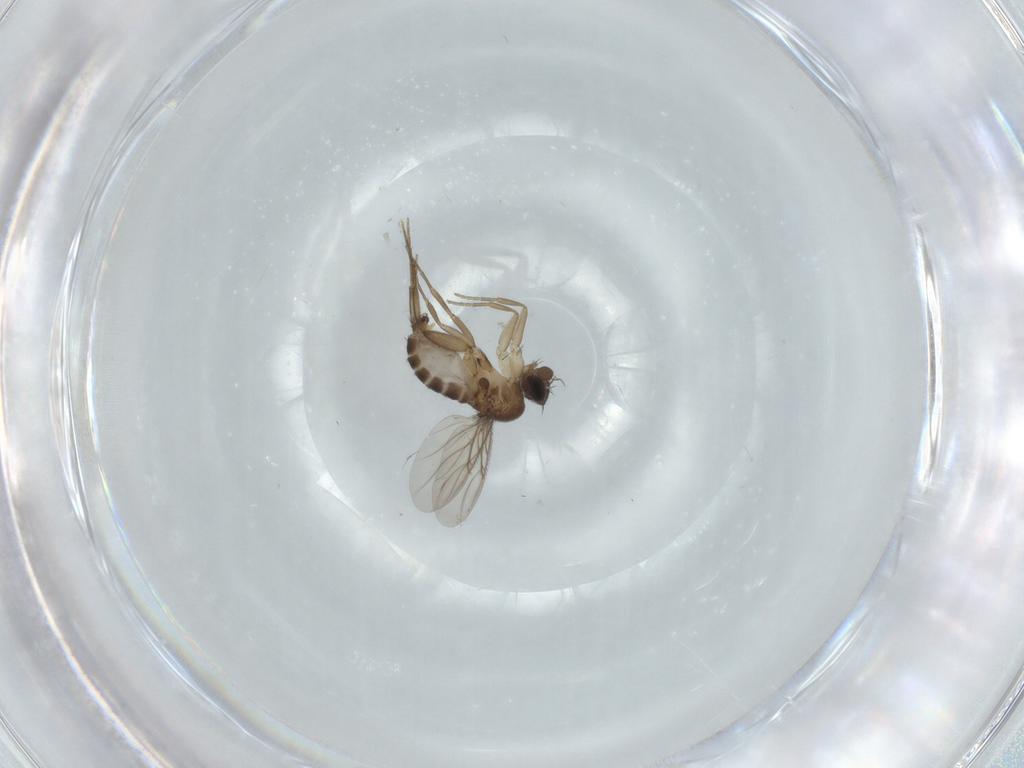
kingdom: Animalia
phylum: Arthropoda
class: Insecta
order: Diptera
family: Phoridae
